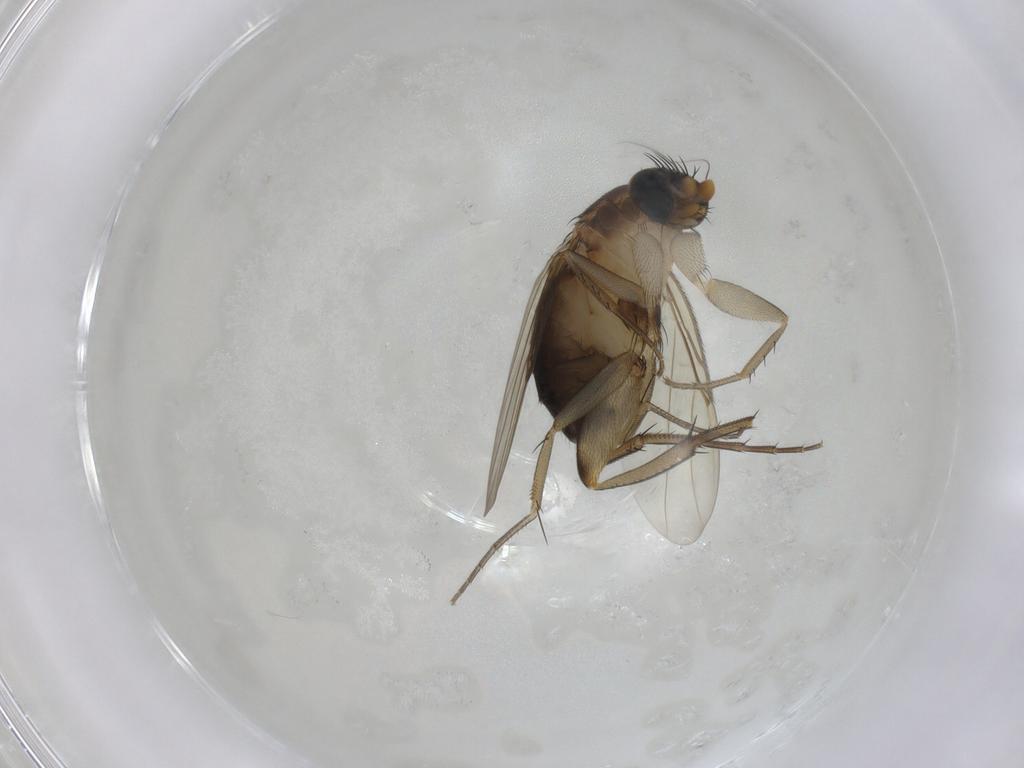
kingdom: Animalia
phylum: Arthropoda
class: Insecta
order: Diptera
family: Phoridae
